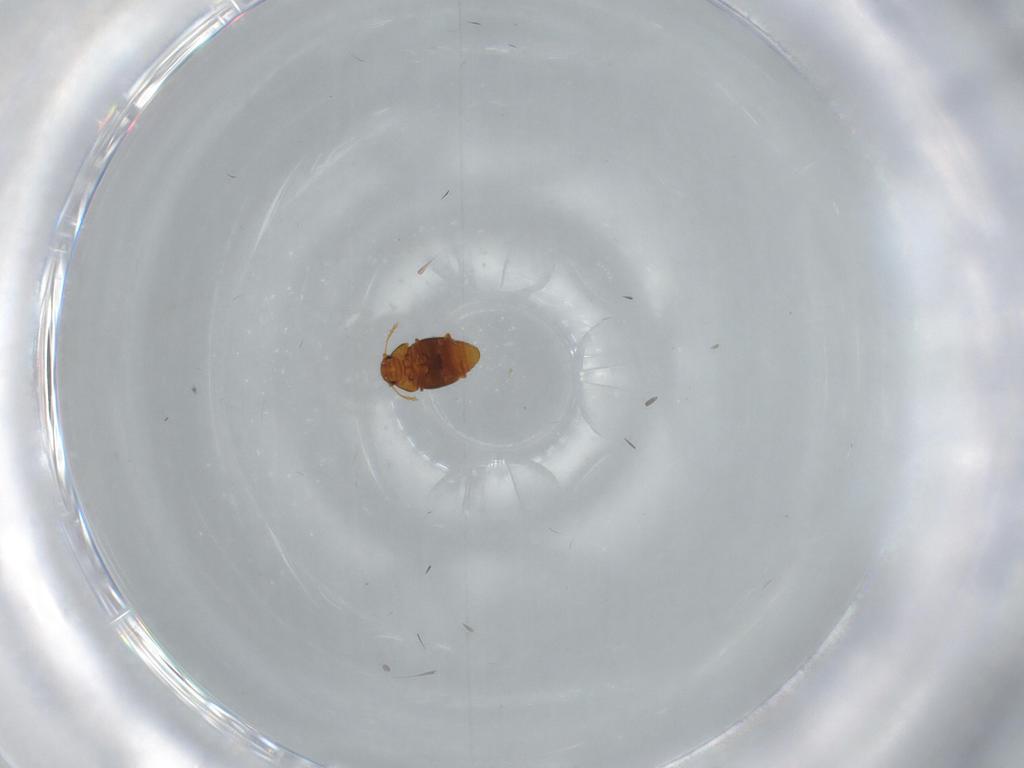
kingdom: Animalia
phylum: Arthropoda
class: Insecta
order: Coleoptera
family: Ptiliidae
